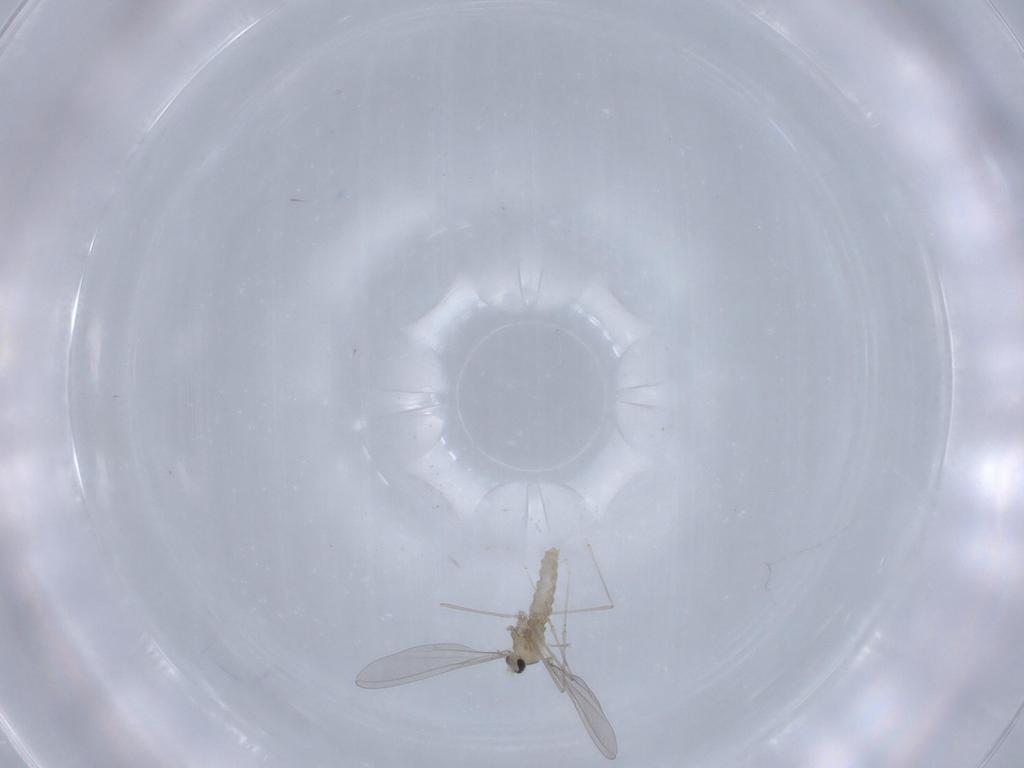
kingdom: Animalia
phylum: Arthropoda
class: Insecta
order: Diptera
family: Cecidomyiidae
